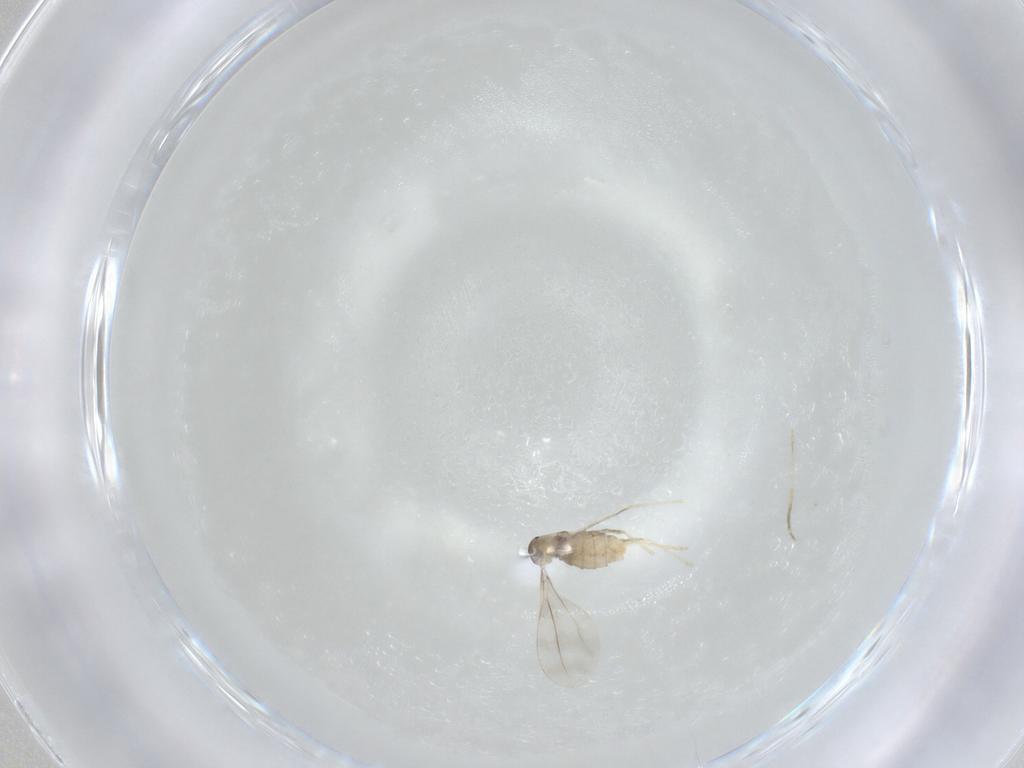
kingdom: Animalia
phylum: Arthropoda
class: Insecta
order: Diptera
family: Cecidomyiidae
